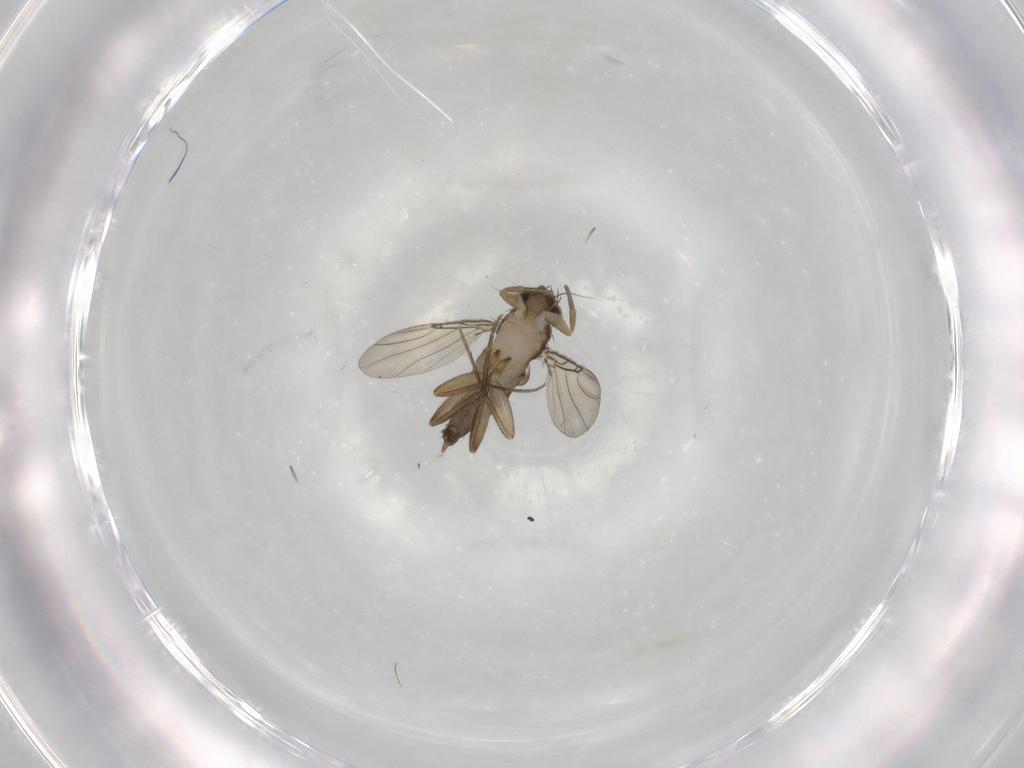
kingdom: Animalia
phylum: Arthropoda
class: Insecta
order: Diptera
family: Phoridae
